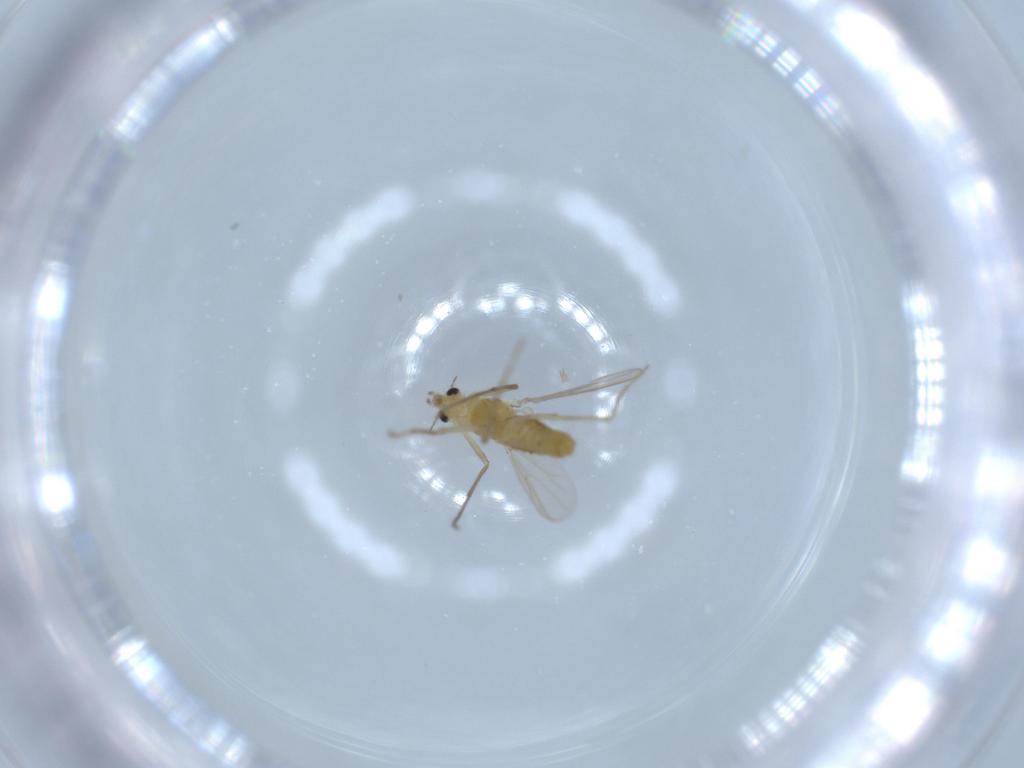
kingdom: Animalia
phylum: Arthropoda
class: Insecta
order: Diptera
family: Chironomidae
